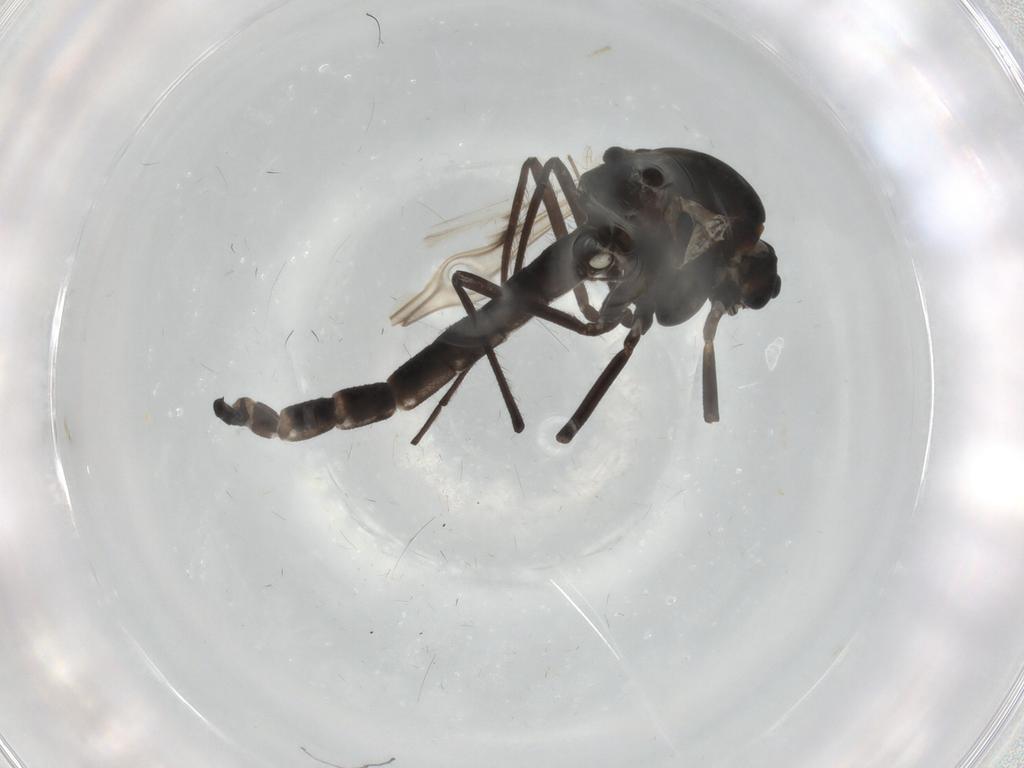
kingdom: Animalia
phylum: Arthropoda
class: Insecta
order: Diptera
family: Chironomidae
